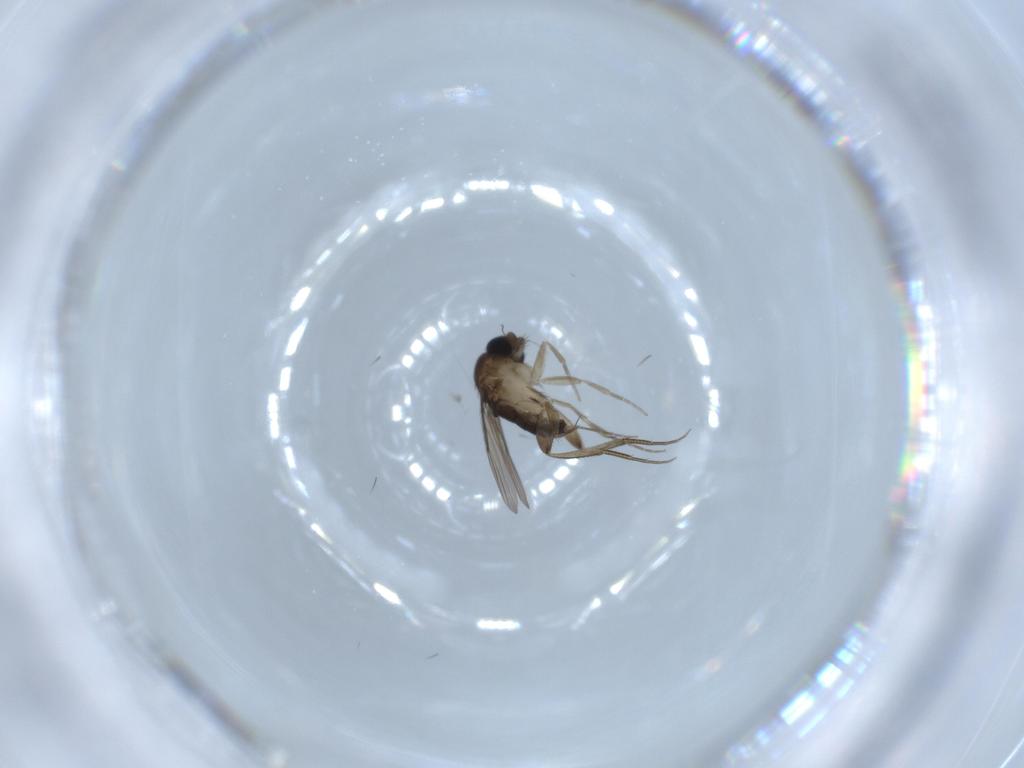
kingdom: Animalia
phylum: Arthropoda
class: Insecta
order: Diptera
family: Phoridae
